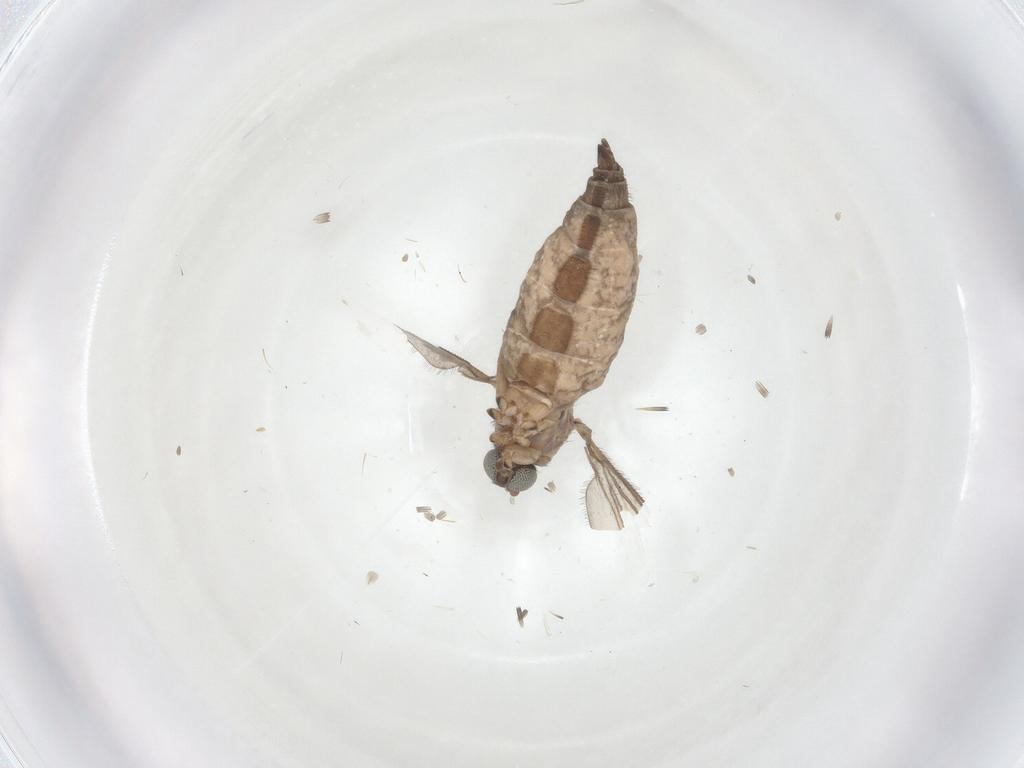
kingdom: Animalia
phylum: Arthropoda
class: Insecta
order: Diptera
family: Sciaridae
